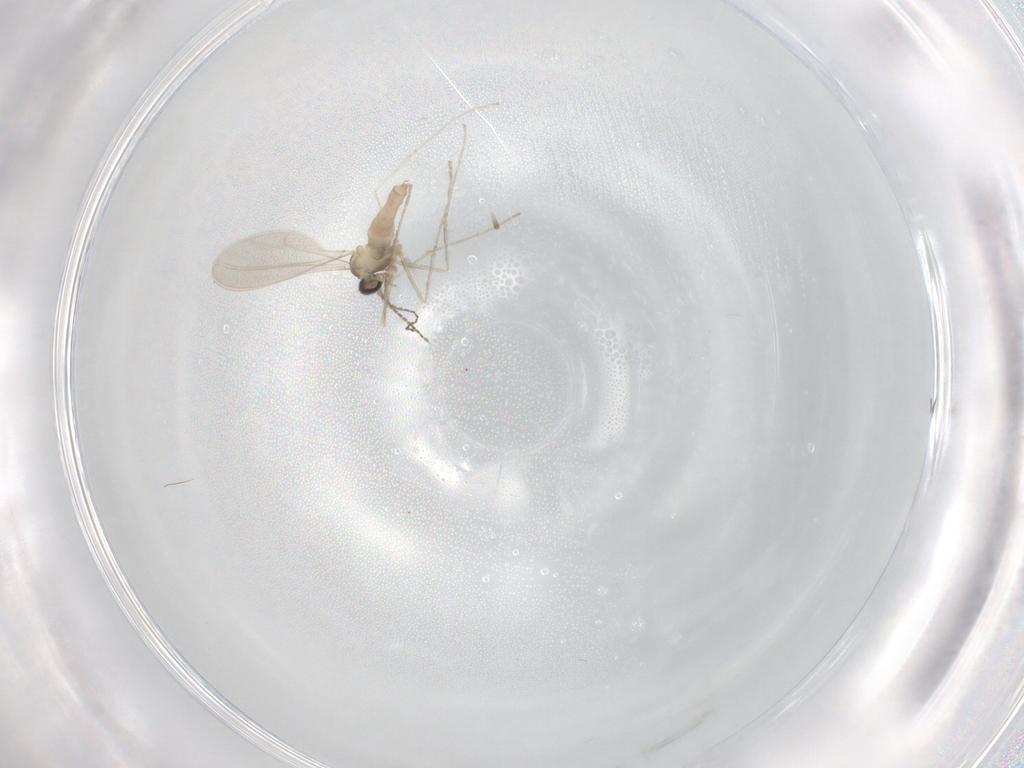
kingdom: Animalia
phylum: Arthropoda
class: Insecta
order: Diptera
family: Cecidomyiidae
